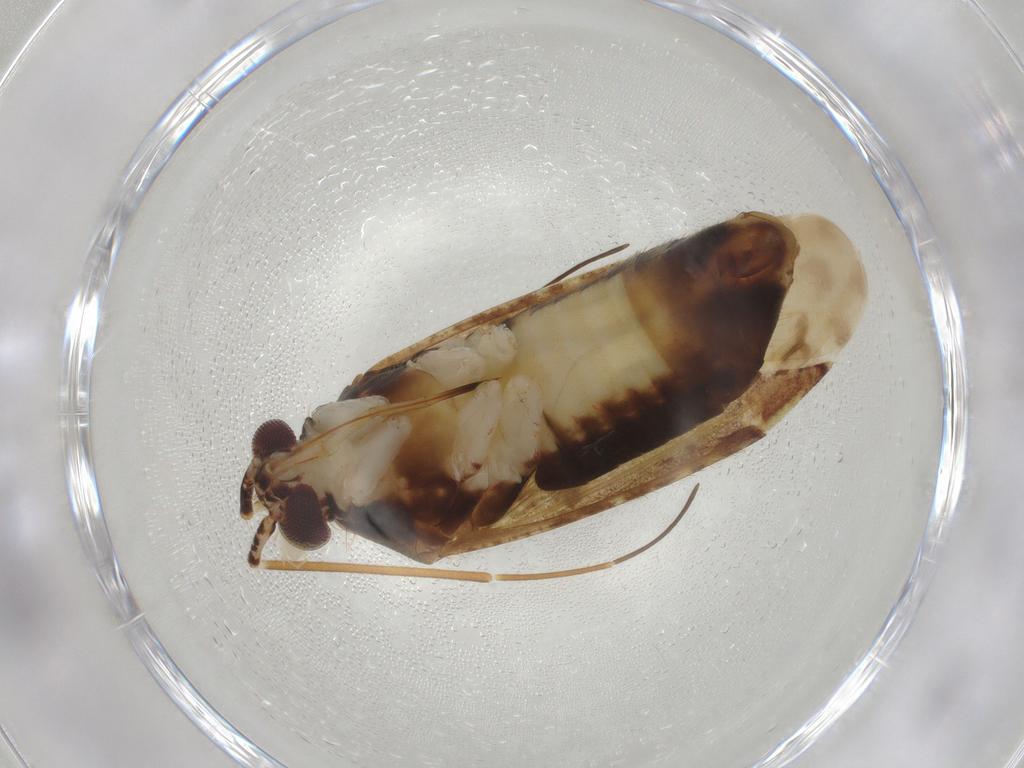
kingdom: Animalia
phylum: Arthropoda
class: Insecta
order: Hemiptera
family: Miridae
